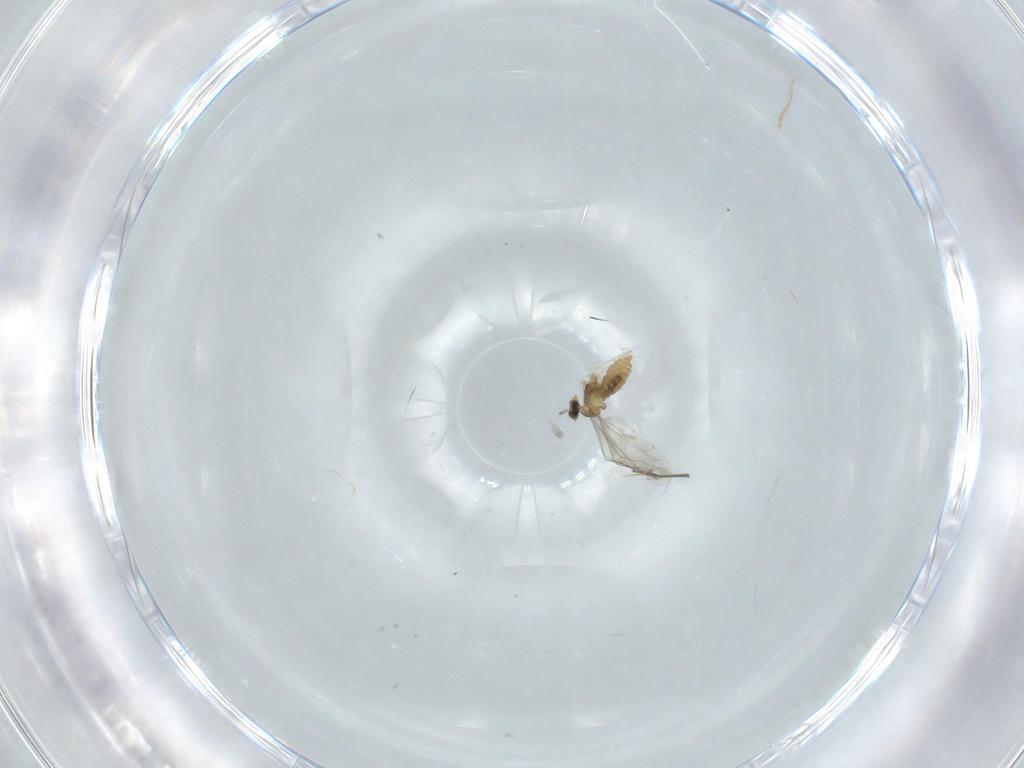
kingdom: Animalia
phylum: Arthropoda
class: Insecta
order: Diptera
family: Cecidomyiidae
